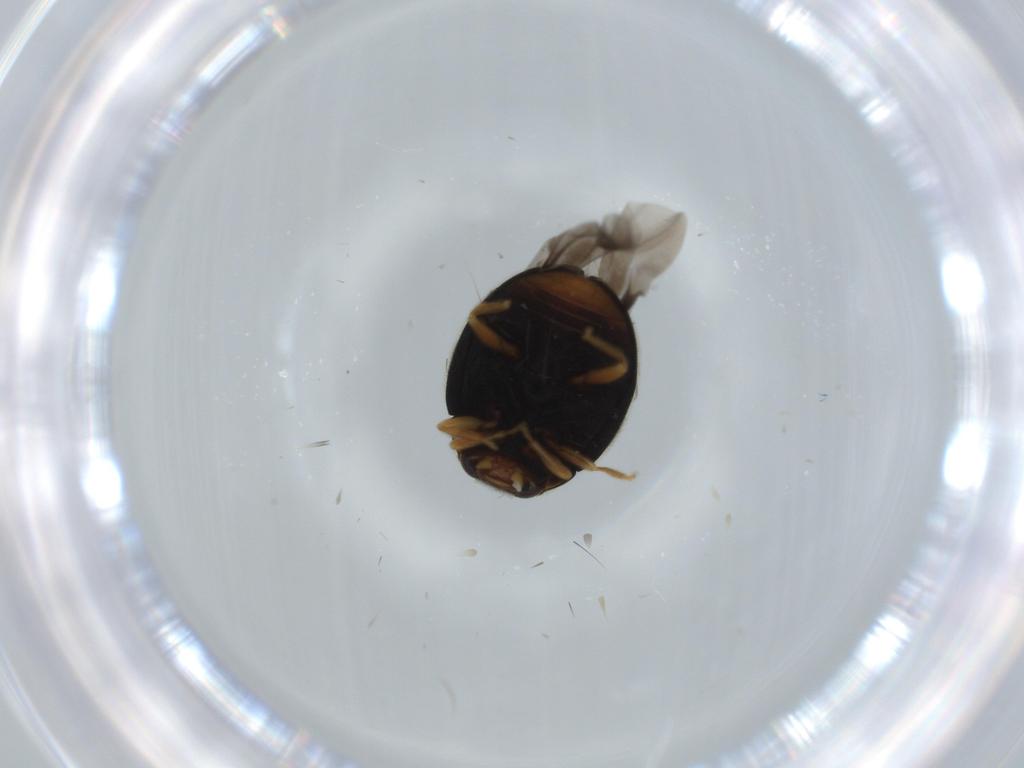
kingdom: Animalia
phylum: Arthropoda
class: Insecta
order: Coleoptera
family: Coccinellidae
